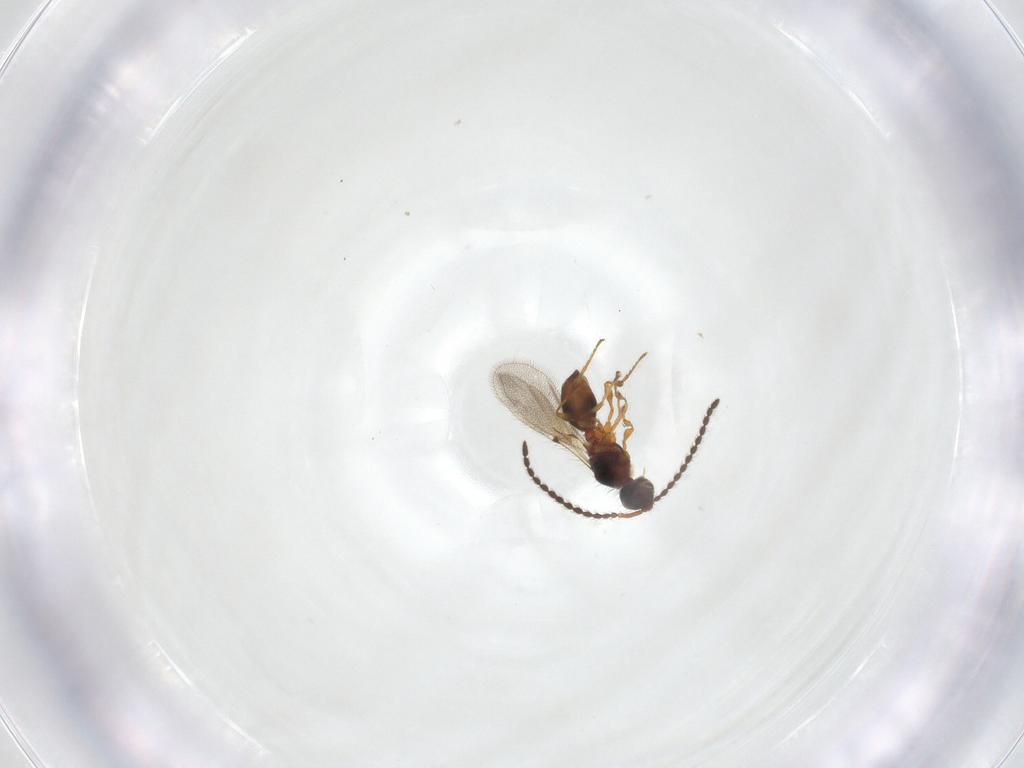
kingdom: Animalia
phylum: Arthropoda
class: Insecta
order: Hymenoptera
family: Diapriidae
